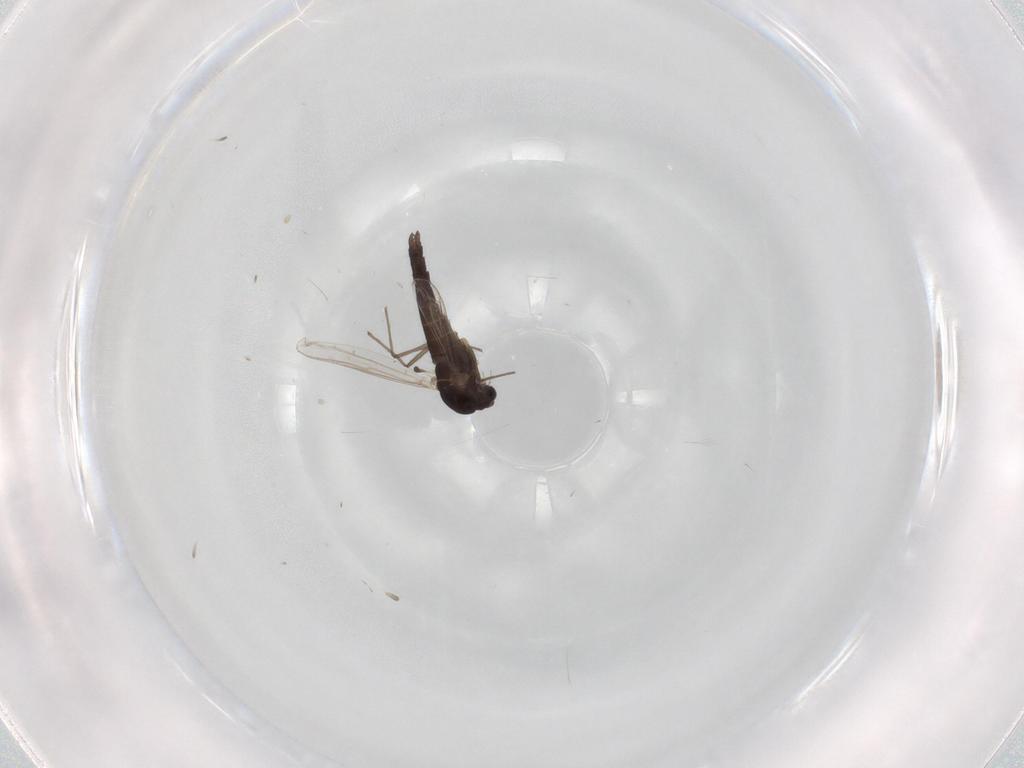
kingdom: Animalia
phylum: Arthropoda
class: Insecta
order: Diptera
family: Chironomidae
